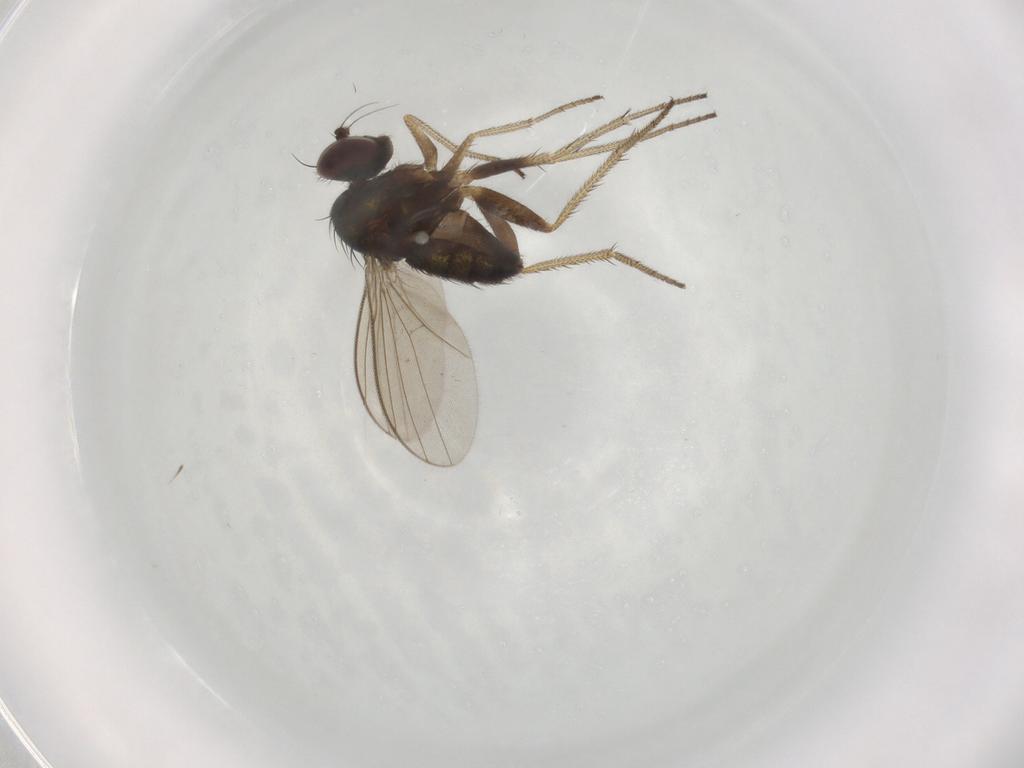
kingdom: Animalia
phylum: Arthropoda
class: Insecta
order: Diptera
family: Dolichopodidae
